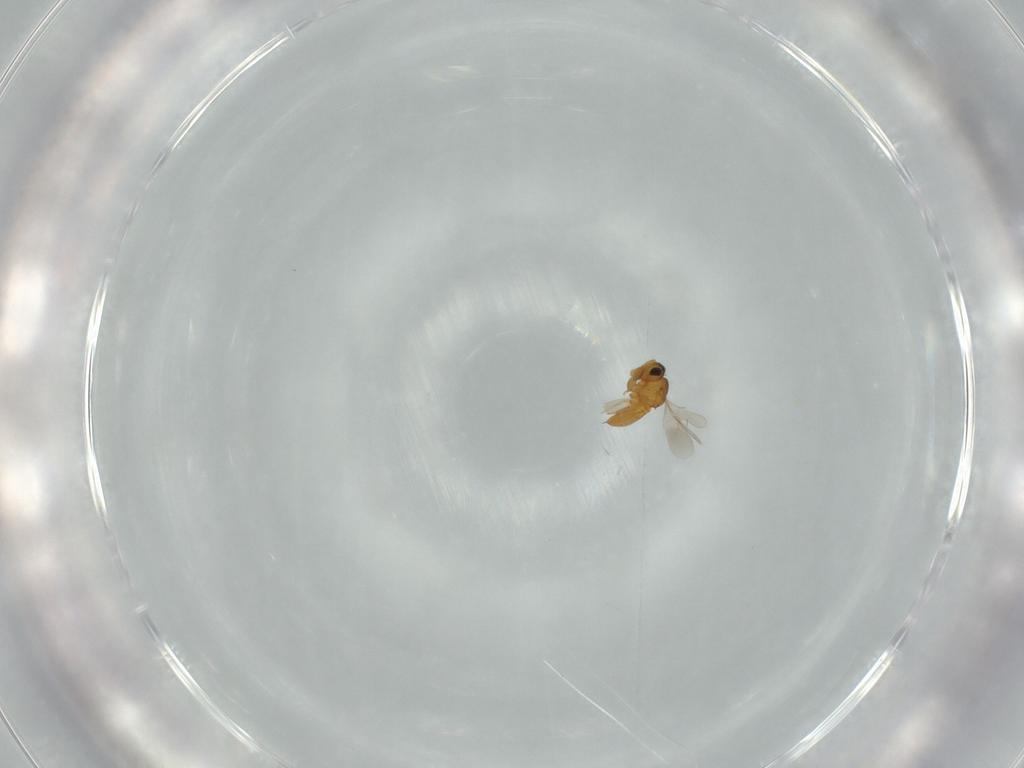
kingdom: Animalia
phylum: Arthropoda
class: Insecta
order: Hymenoptera
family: Scelionidae
